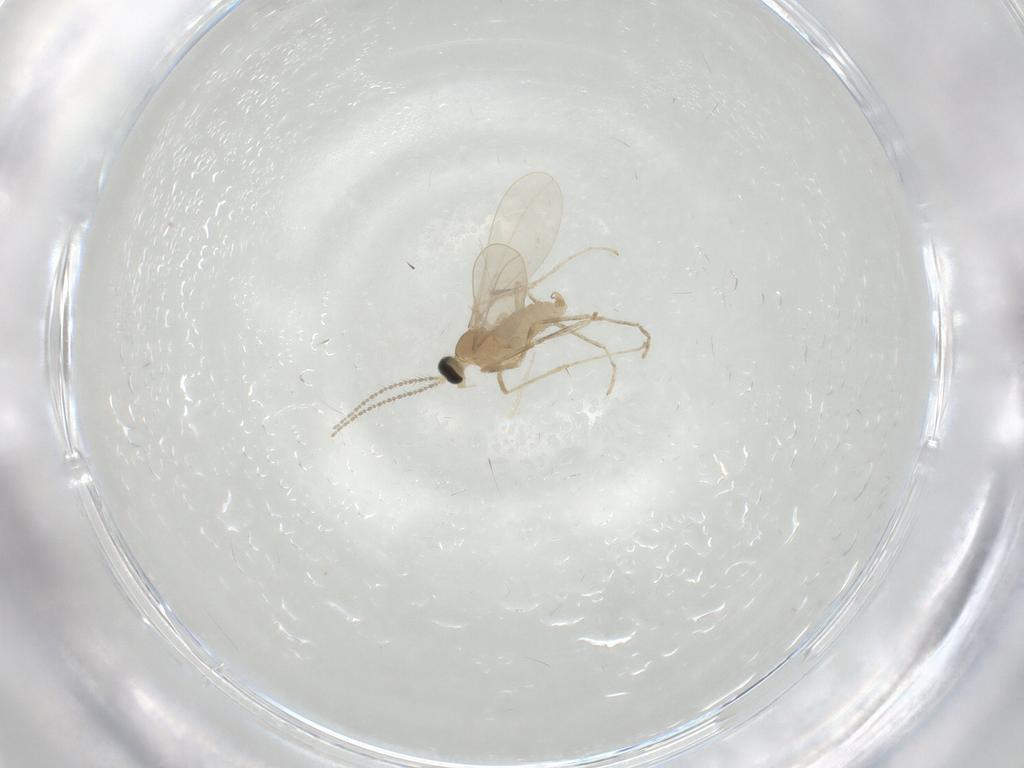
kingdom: Animalia
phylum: Arthropoda
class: Insecta
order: Diptera
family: Cecidomyiidae
